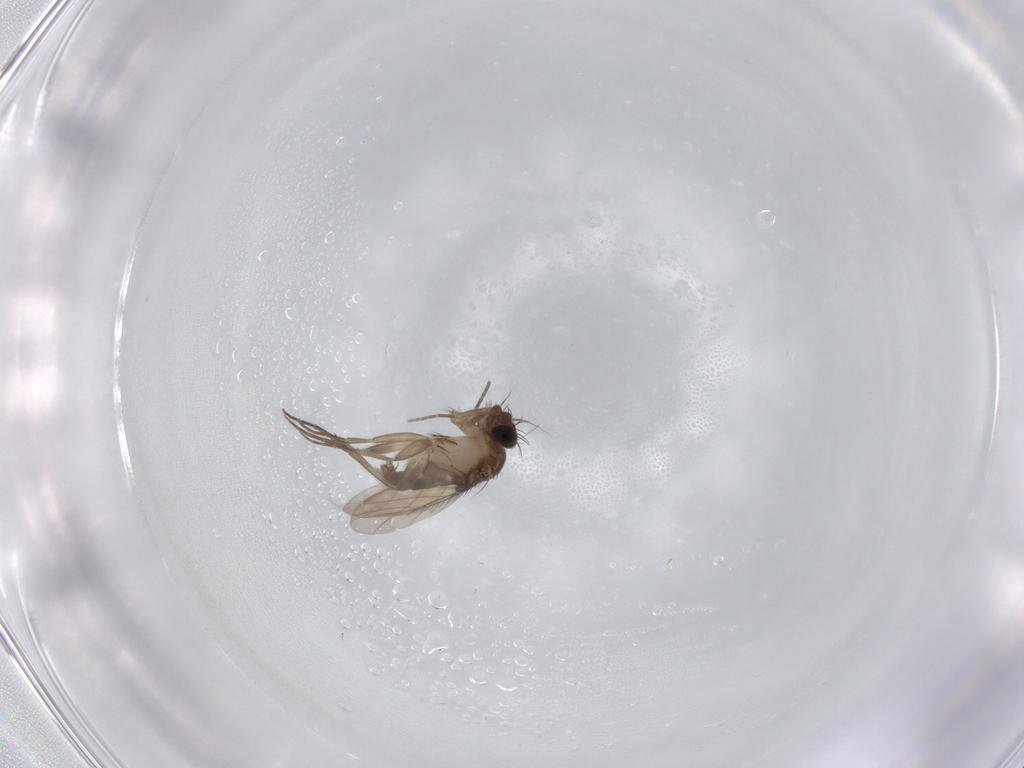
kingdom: Animalia
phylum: Arthropoda
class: Insecta
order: Diptera
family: Phoridae
